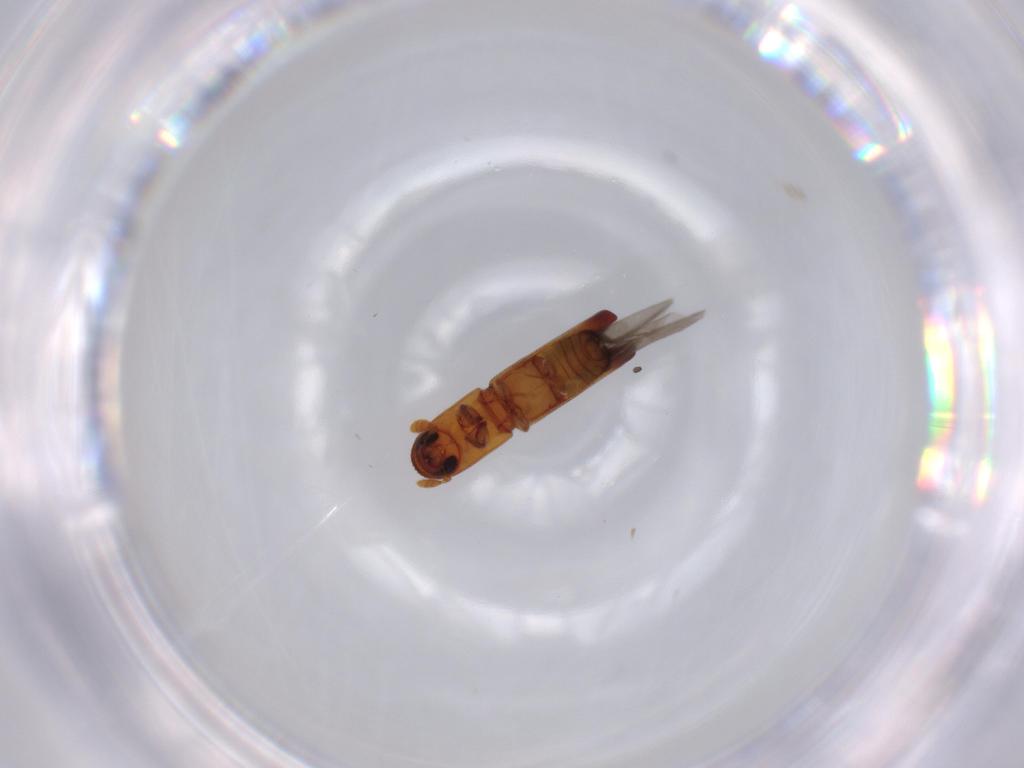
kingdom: Animalia
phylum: Arthropoda
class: Insecta
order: Coleoptera
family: Curculionidae
